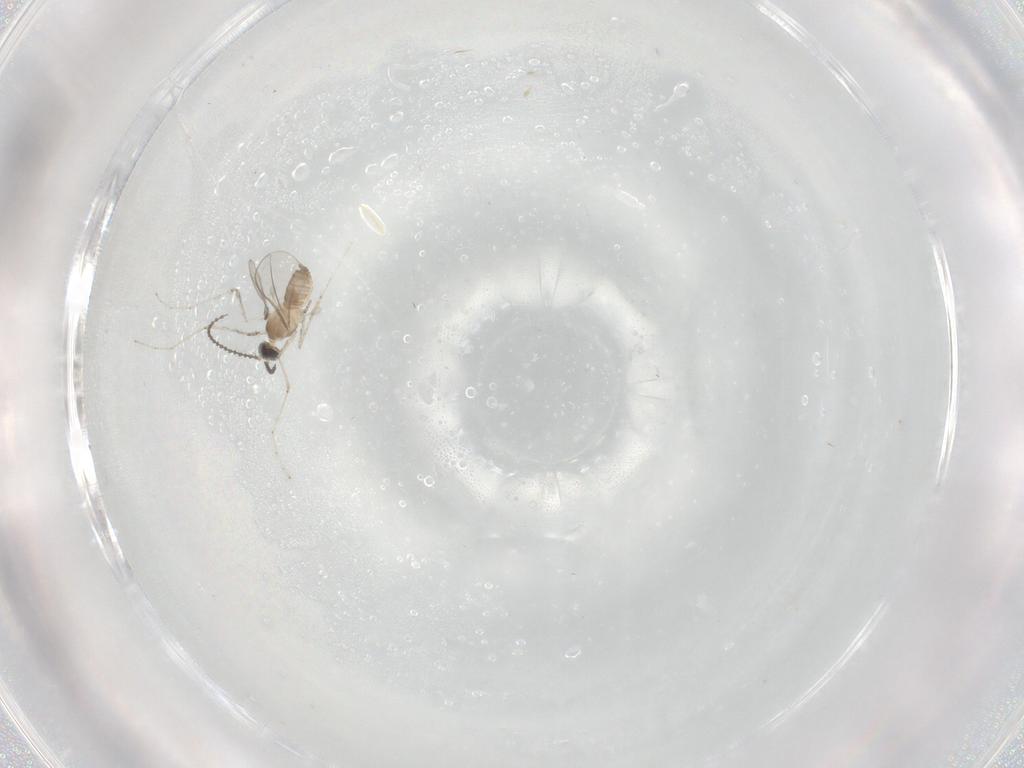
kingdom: Animalia
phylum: Arthropoda
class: Insecta
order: Diptera
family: Cecidomyiidae
